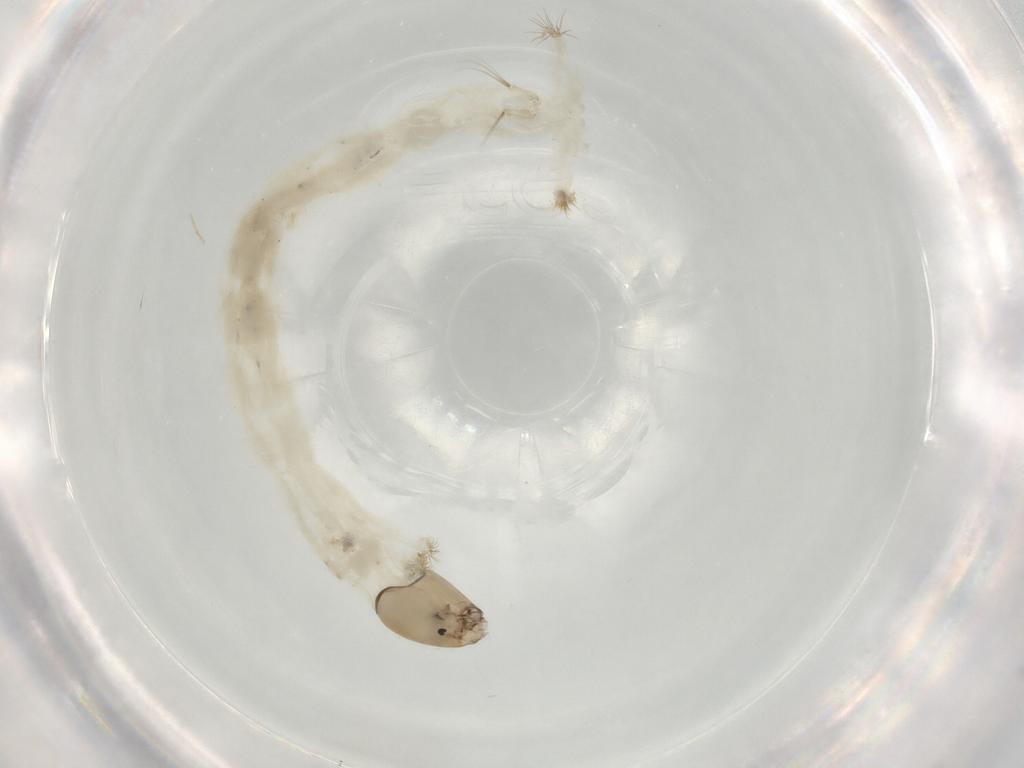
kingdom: Animalia
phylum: Arthropoda
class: Insecta
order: Diptera
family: Chironomidae
